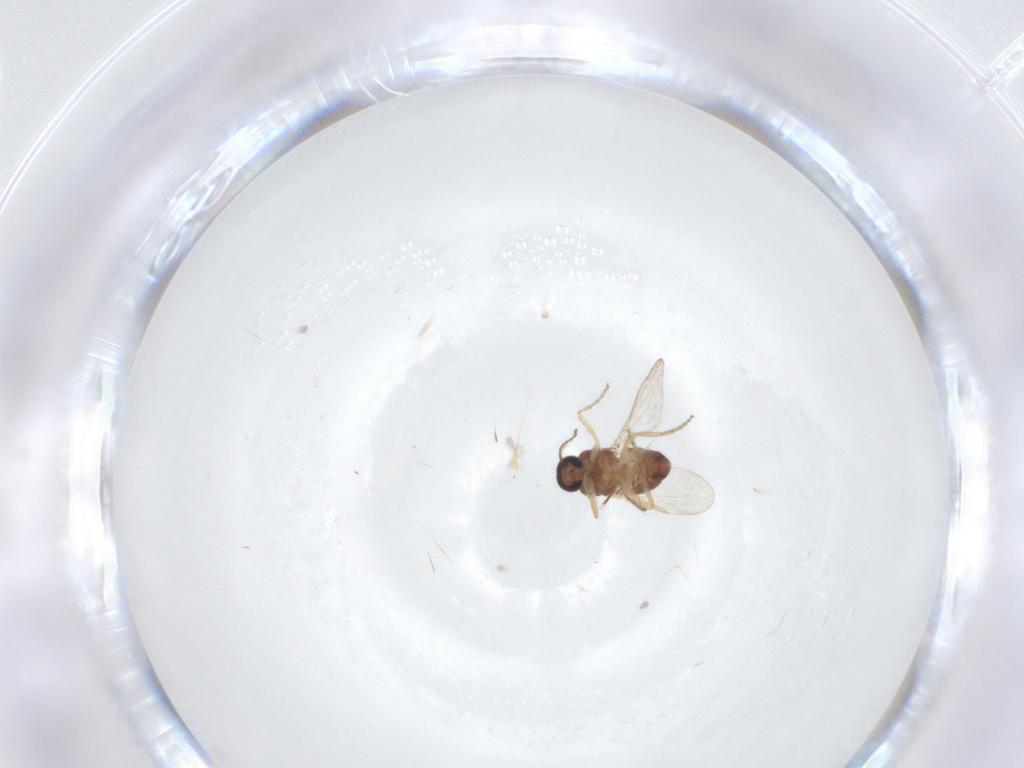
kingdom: Animalia
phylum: Arthropoda
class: Insecta
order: Diptera
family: Ceratopogonidae
